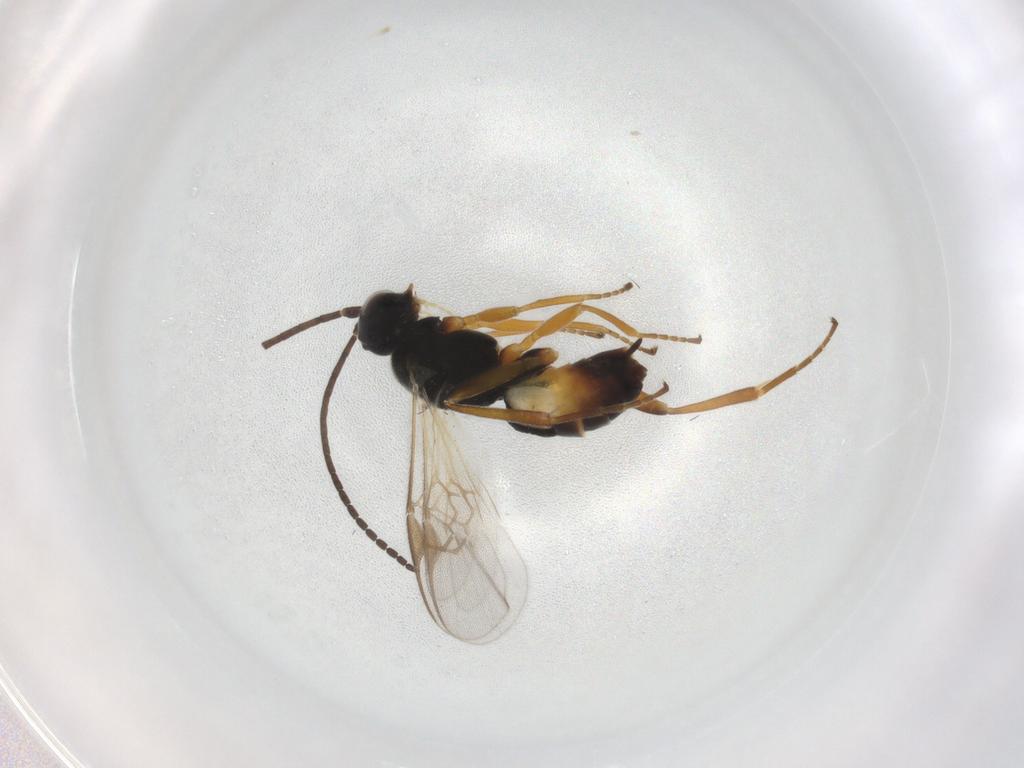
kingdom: Animalia
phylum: Arthropoda
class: Insecta
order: Hymenoptera
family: Braconidae
